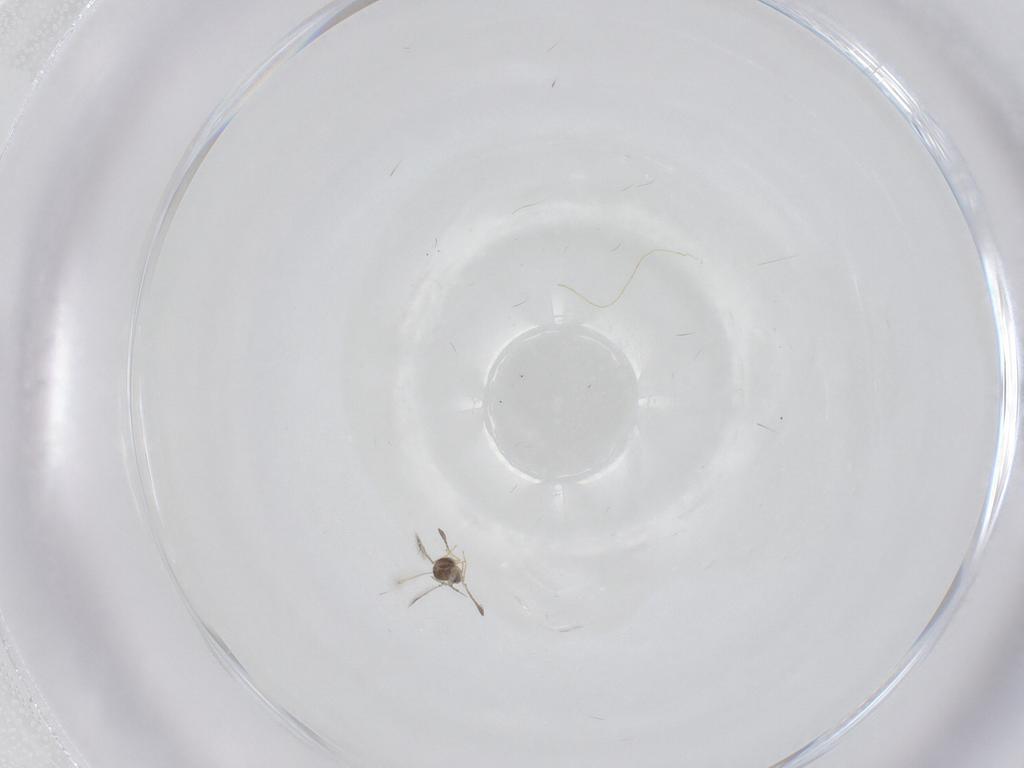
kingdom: Animalia
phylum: Arthropoda
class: Insecta
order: Hymenoptera
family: Mymaridae
